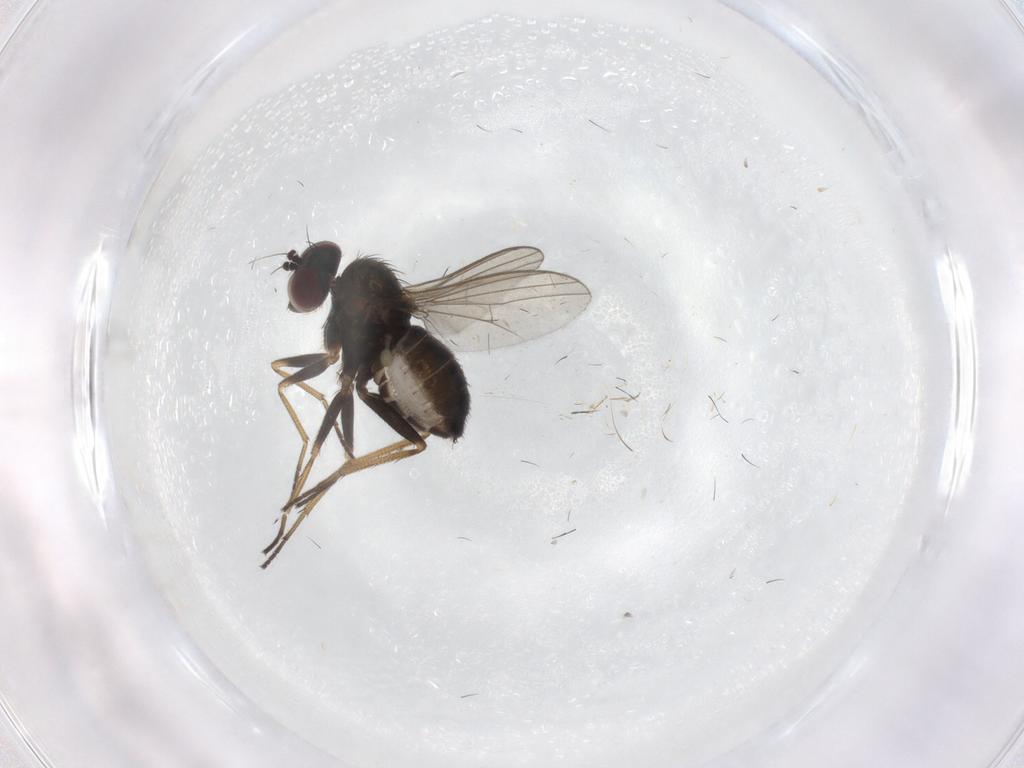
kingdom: Animalia
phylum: Arthropoda
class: Insecta
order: Diptera
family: Dolichopodidae
